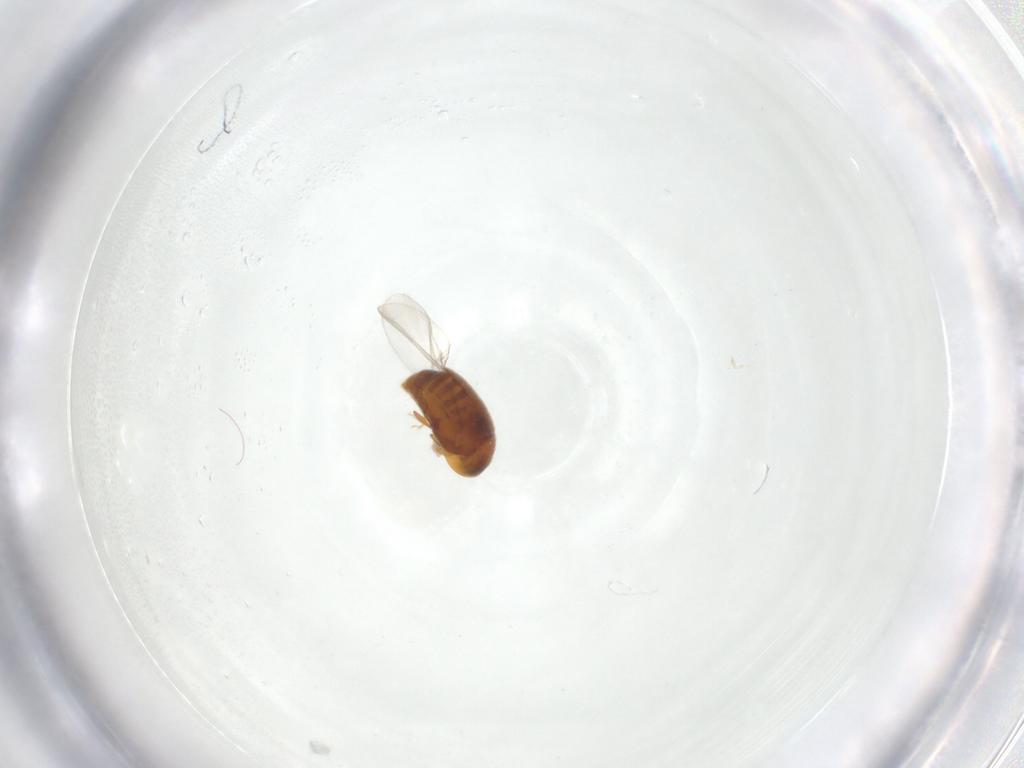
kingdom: Animalia
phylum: Arthropoda
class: Insecta
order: Coleoptera
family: Corylophidae
